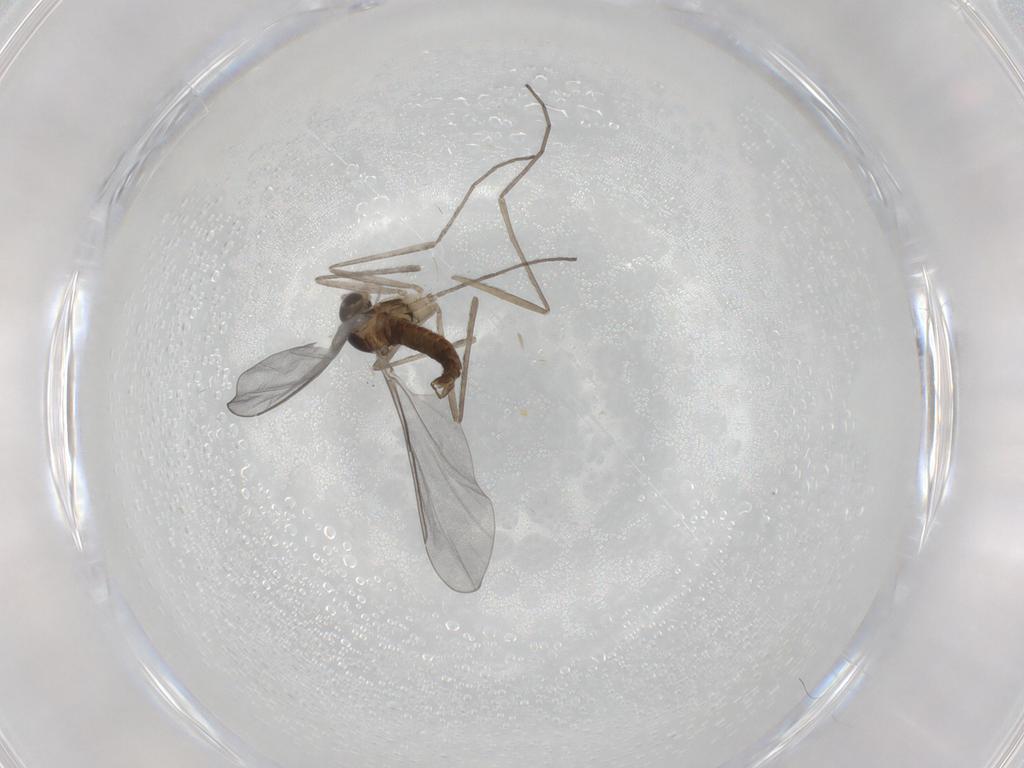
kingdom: Animalia
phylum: Arthropoda
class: Insecta
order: Diptera
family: Cecidomyiidae
